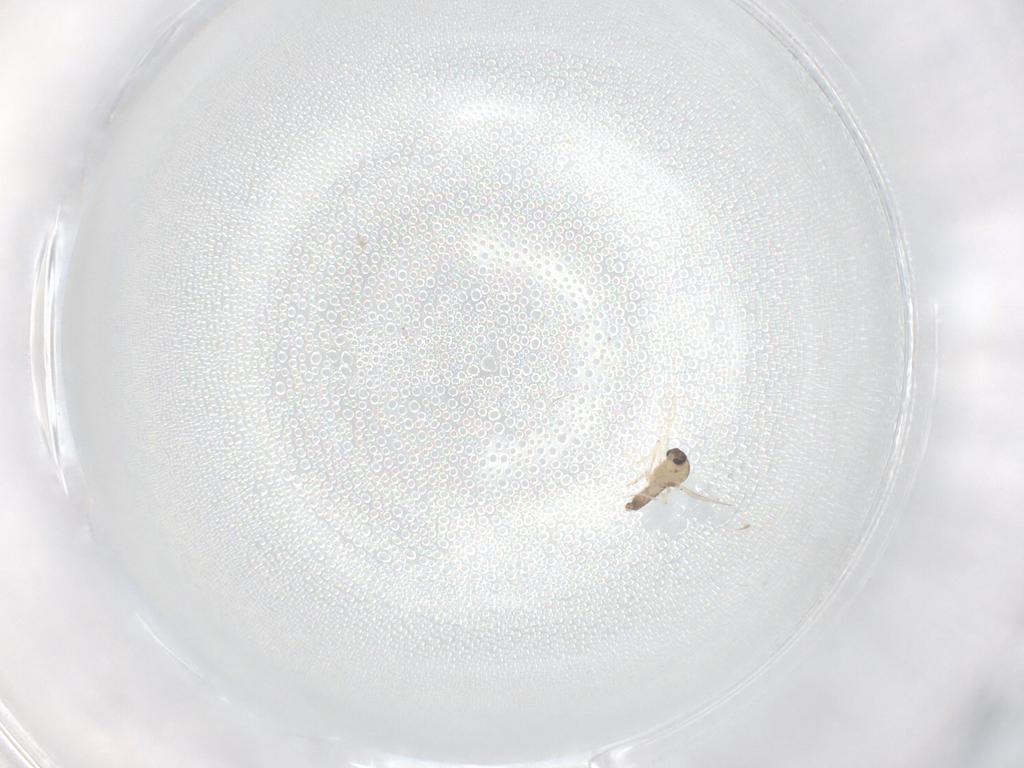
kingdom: Animalia
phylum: Arthropoda
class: Insecta
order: Diptera
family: Ceratopogonidae
